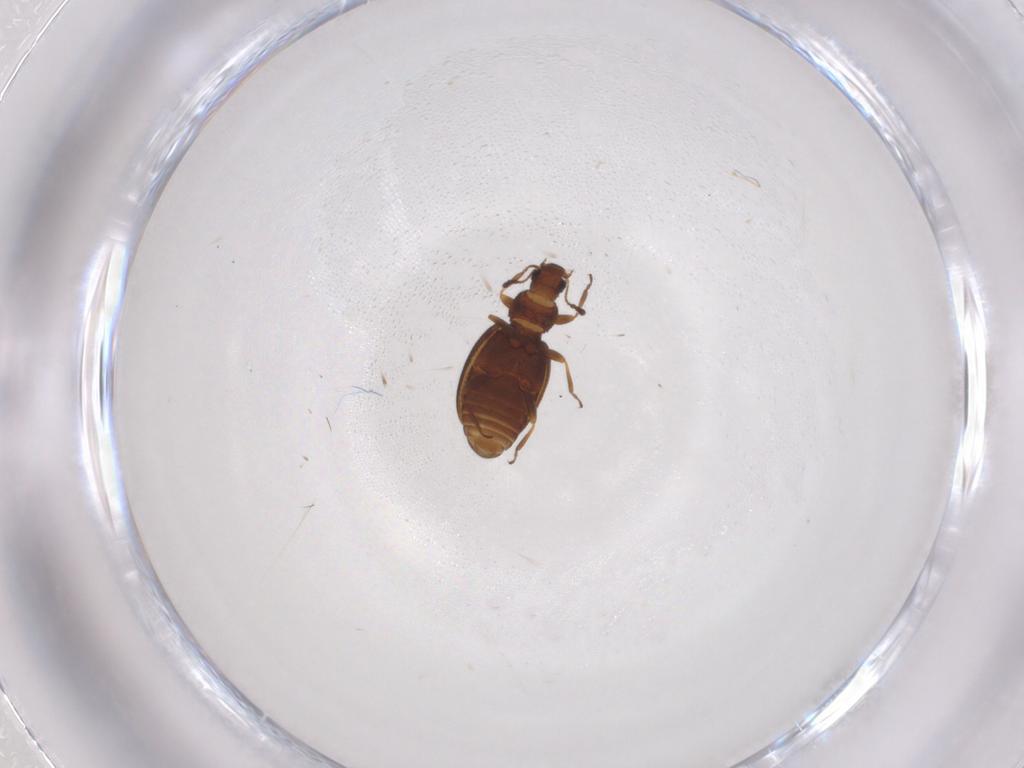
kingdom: Animalia
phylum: Arthropoda
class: Insecta
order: Coleoptera
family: Latridiidae
